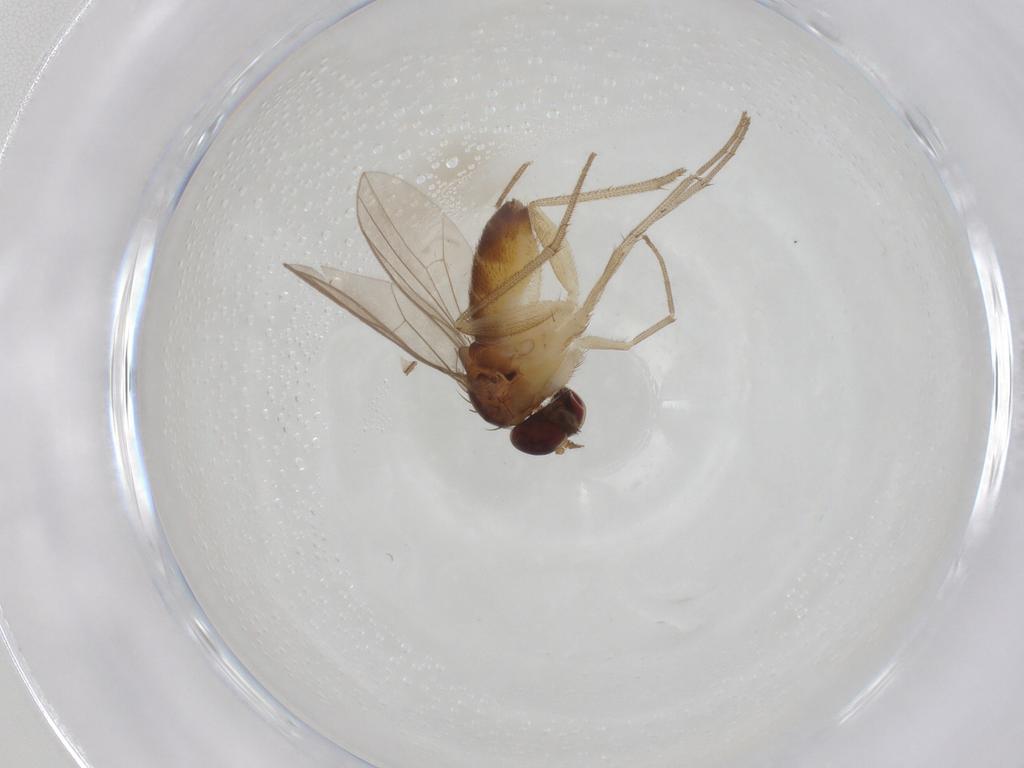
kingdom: Animalia
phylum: Arthropoda
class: Insecta
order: Diptera
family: Dolichopodidae
